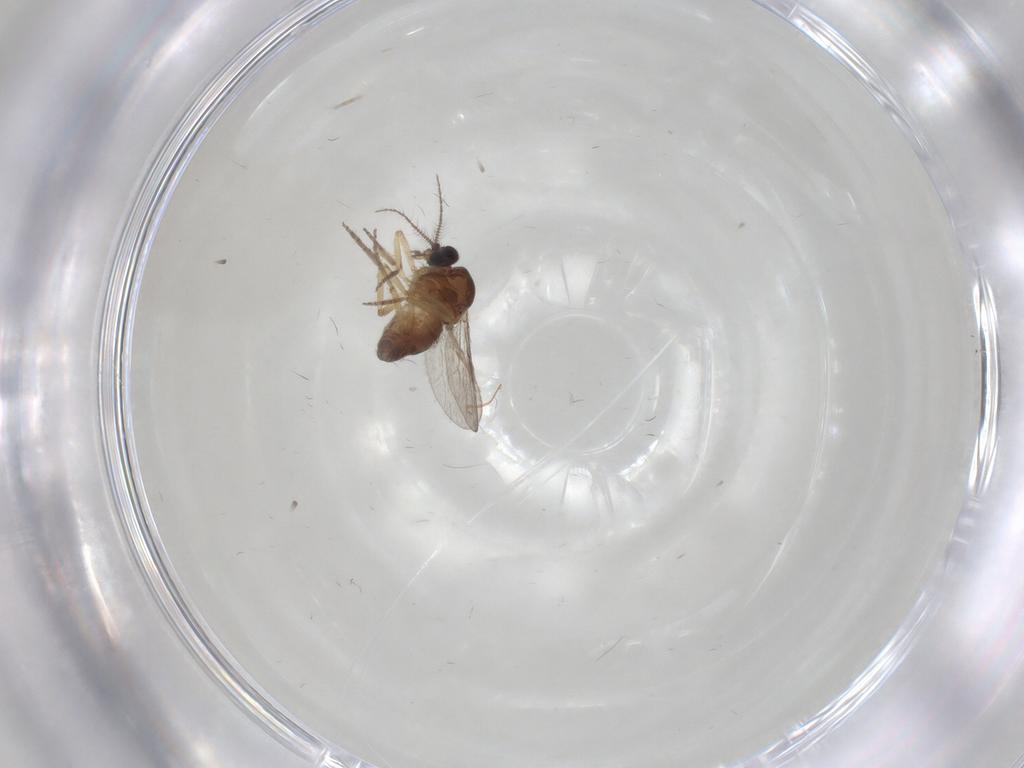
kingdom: Animalia
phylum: Arthropoda
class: Insecta
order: Diptera
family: Ceratopogonidae
